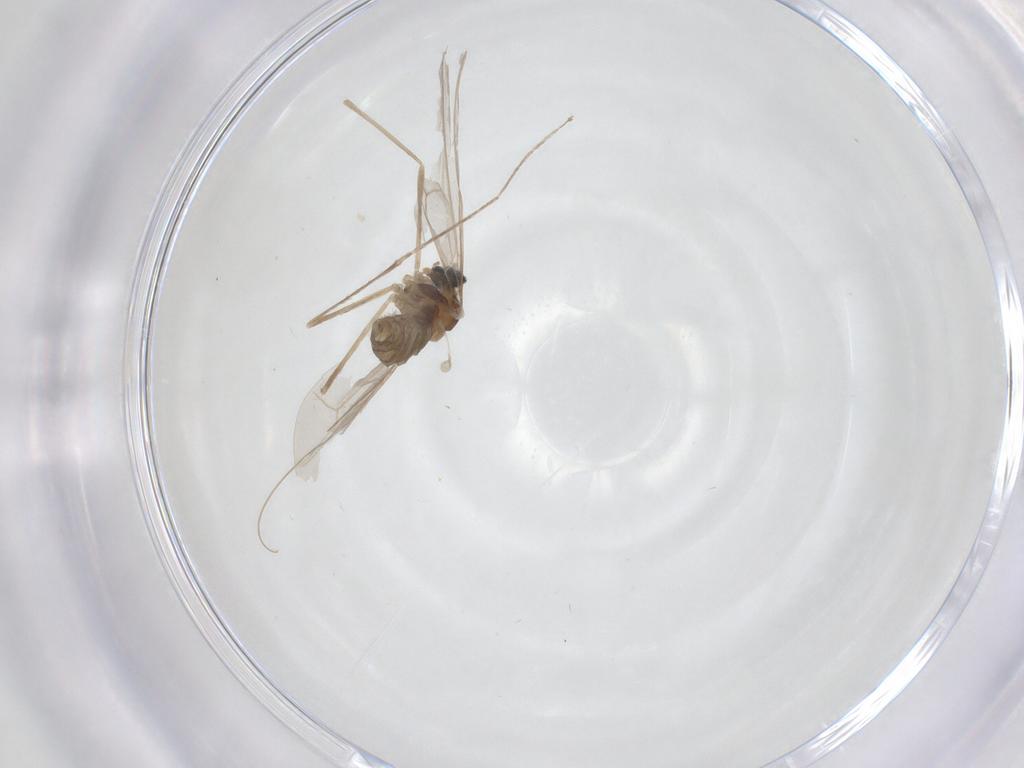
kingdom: Animalia
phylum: Arthropoda
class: Insecta
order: Diptera
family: Cecidomyiidae
